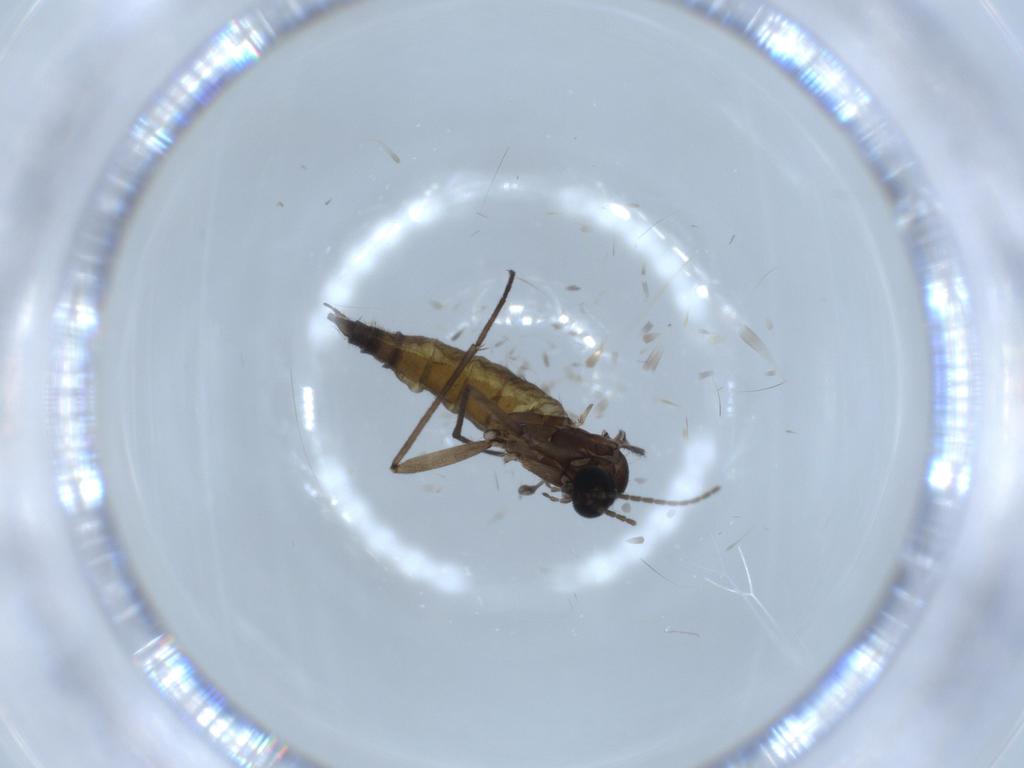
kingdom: Animalia
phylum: Arthropoda
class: Insecta
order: Diptera
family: Sciaridae
